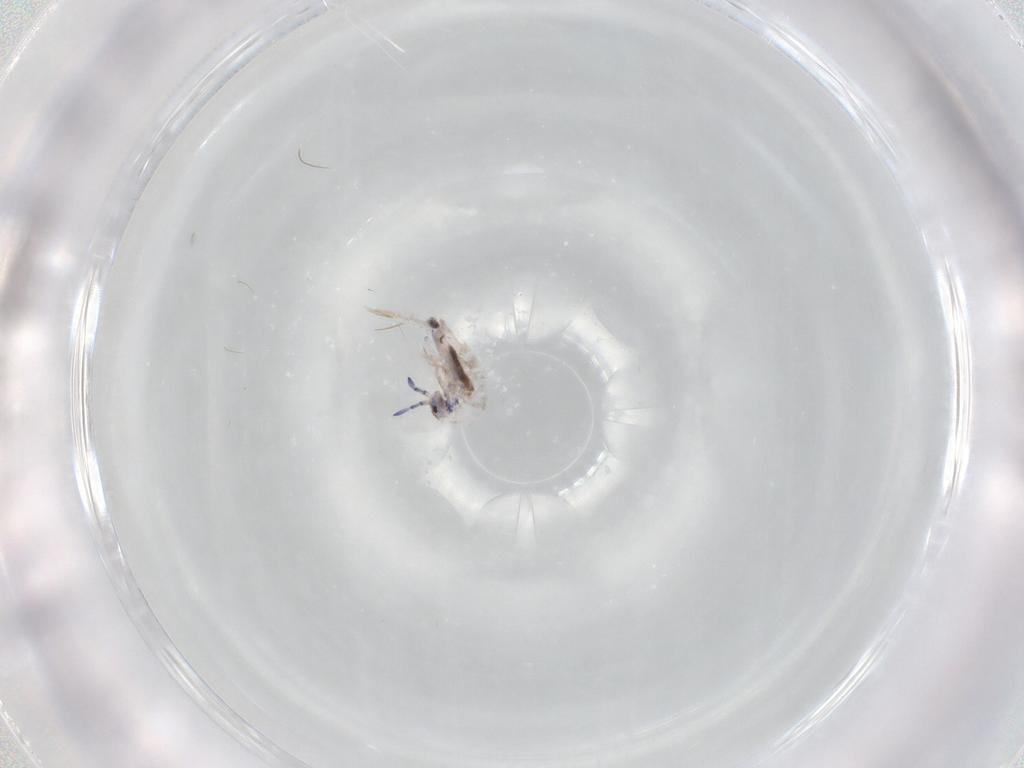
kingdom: Animalia
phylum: Arthropoda
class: Collembola
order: Entomobryomorpha
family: Entomobryidae
